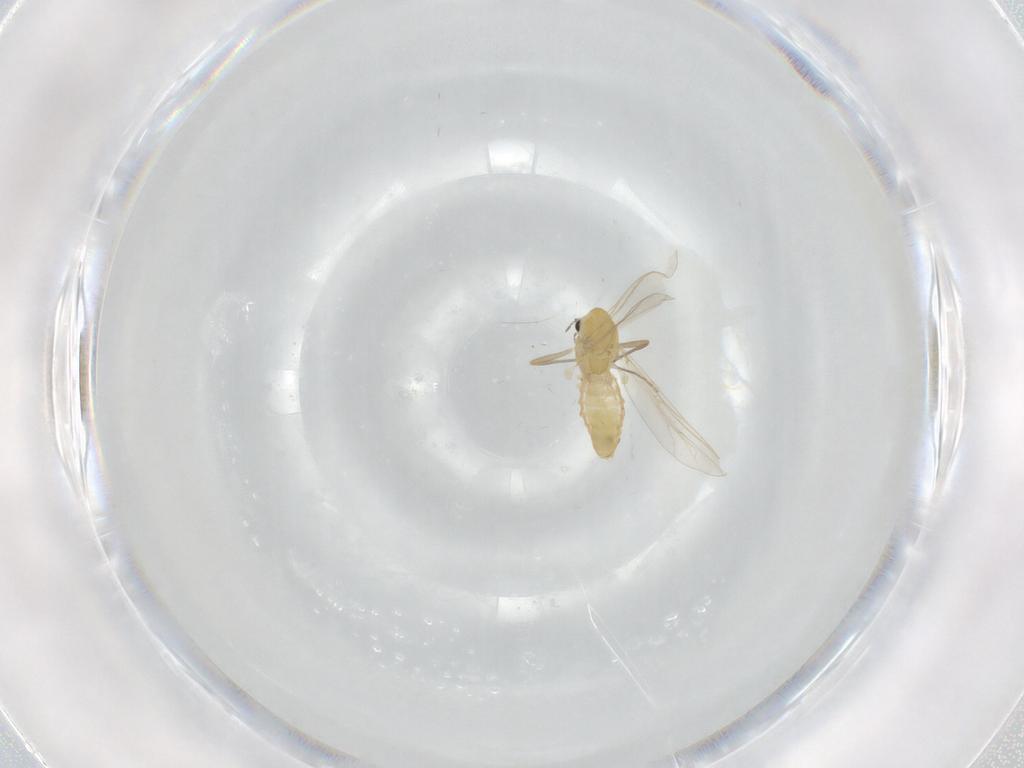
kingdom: Animalia
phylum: Arthropoda
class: Insecta
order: Diptera
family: Chironomidae
